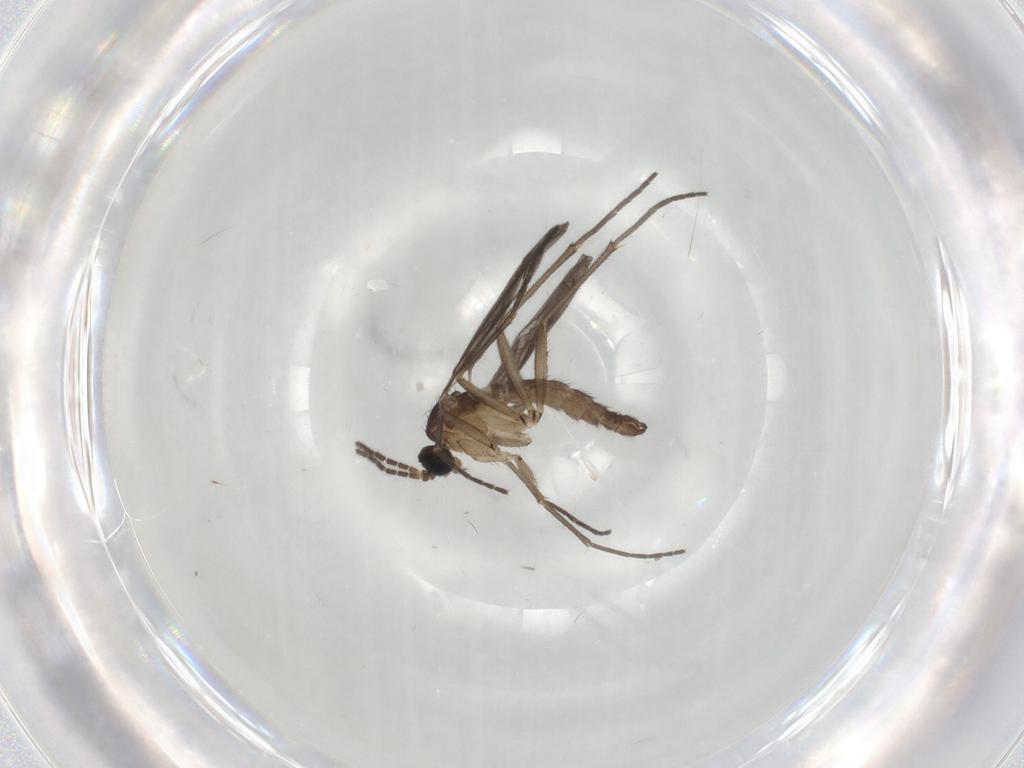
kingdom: Animalia
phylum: Arthropoda
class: Insecta
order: Diptera
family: Sciaridae
